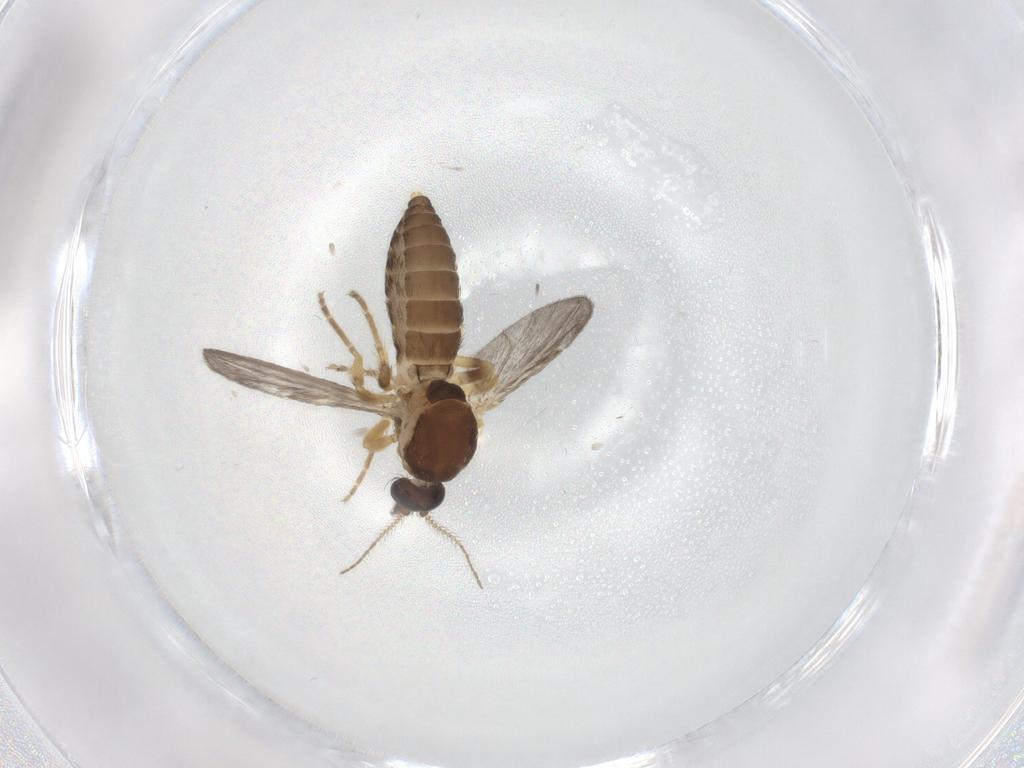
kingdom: Animalia
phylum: Arthropoda
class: Insecta
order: Diptera
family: Ceratopogonidae
